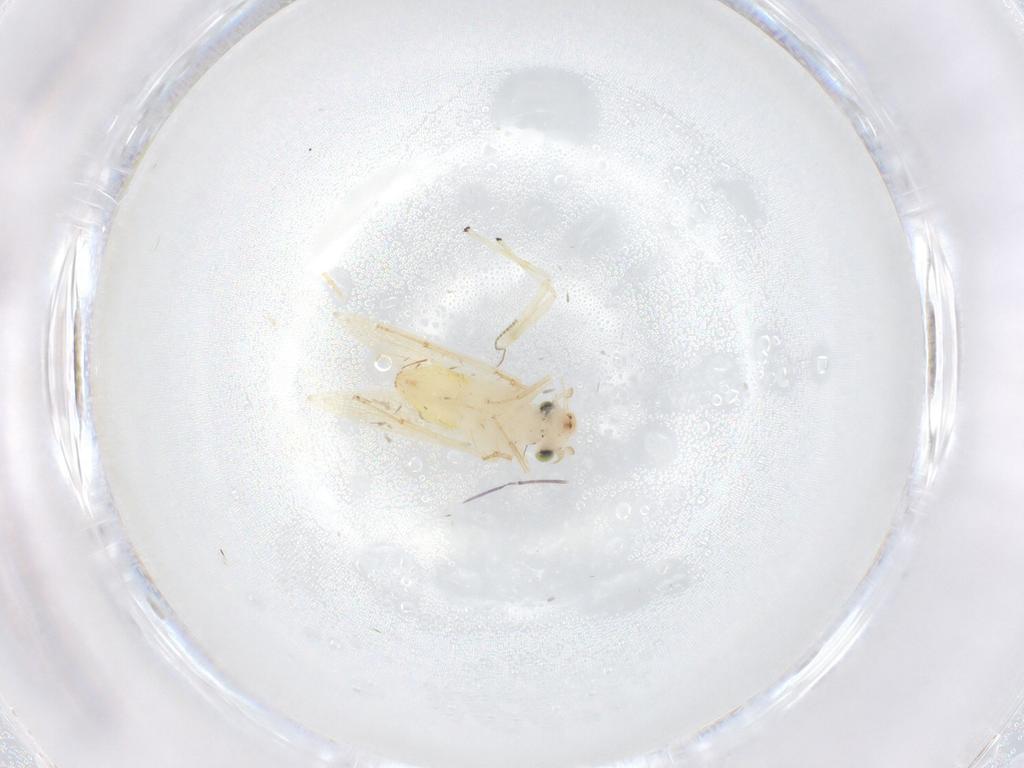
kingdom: Animalia
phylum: Arthropoda
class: Insecta
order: Psocodea
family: Lepidopsocidae
